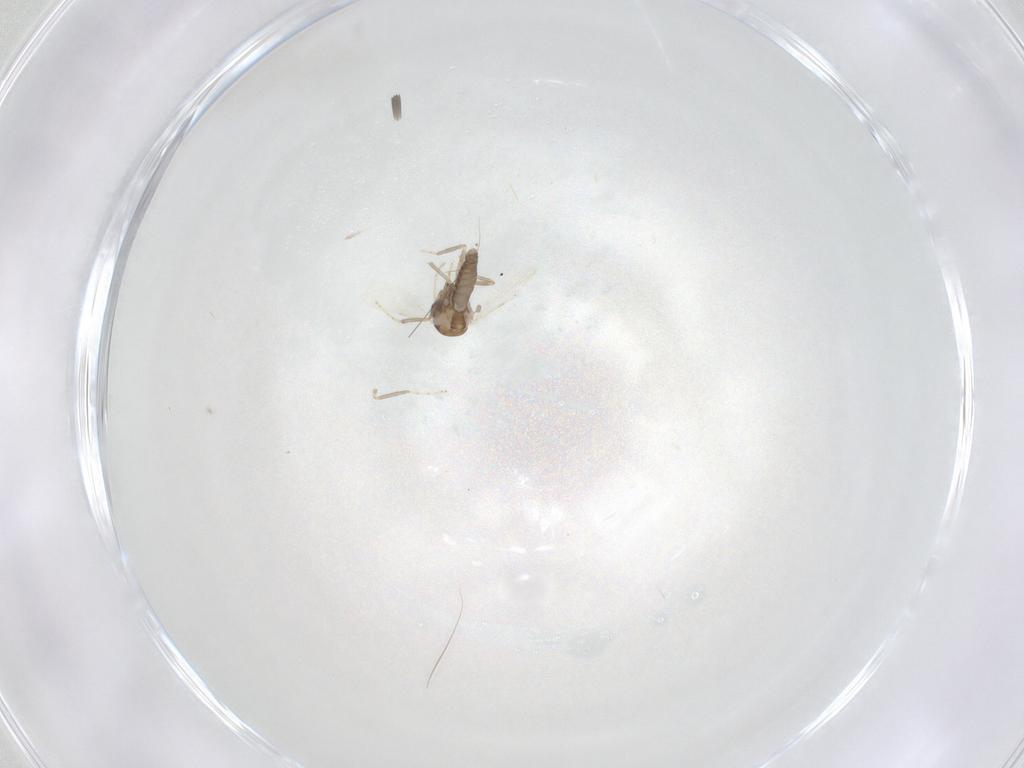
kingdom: Animalia
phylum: Arthropoda
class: Insecta
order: Diptera
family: Ceratopogonidae
